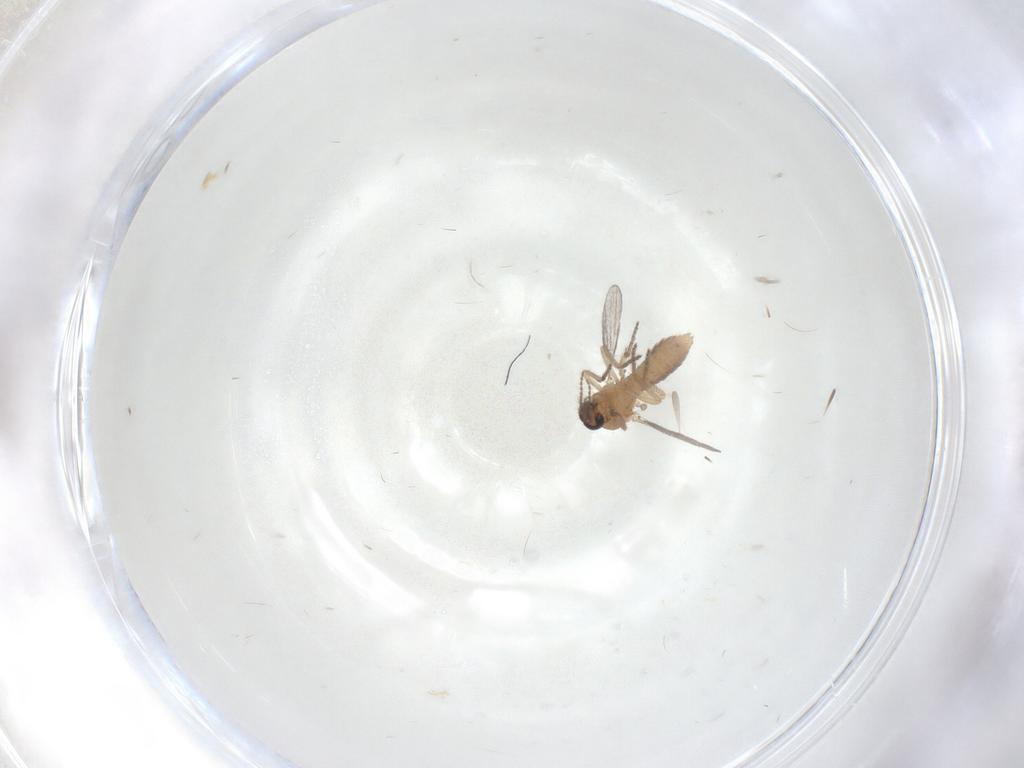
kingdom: Animalia
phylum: Arthropoda
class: Insecta
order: Diptera
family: Ceratopogonidae
